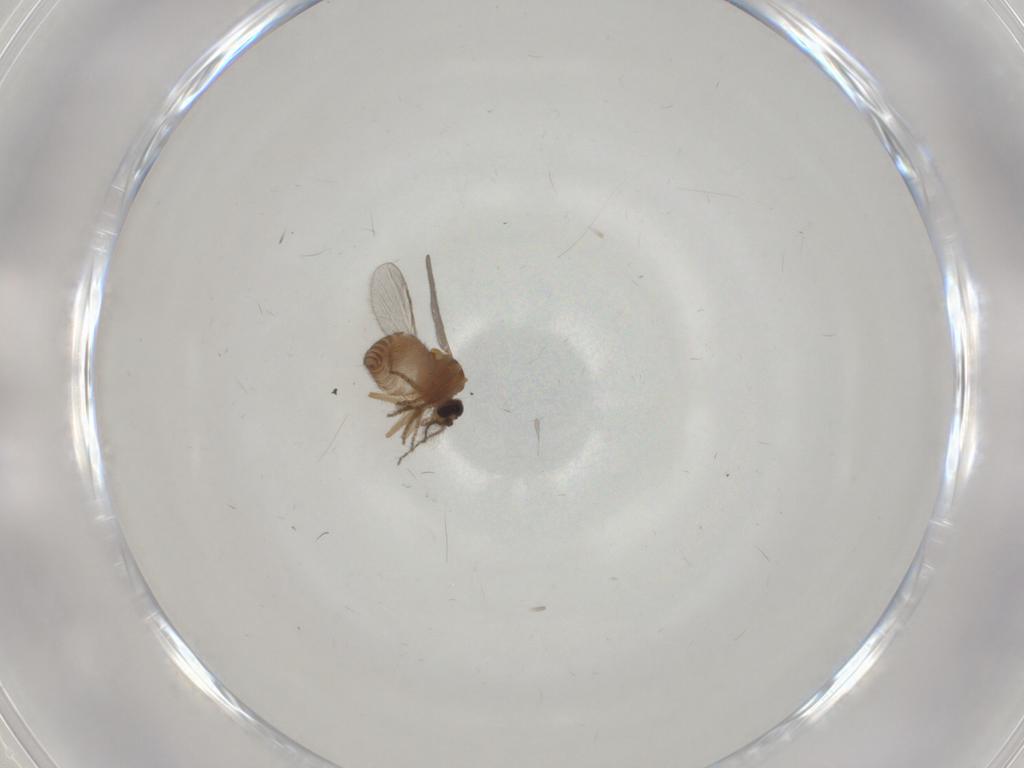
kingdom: Animalia
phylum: Arthropoda
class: Insecta
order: Diptera
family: Ceratopogonidae
